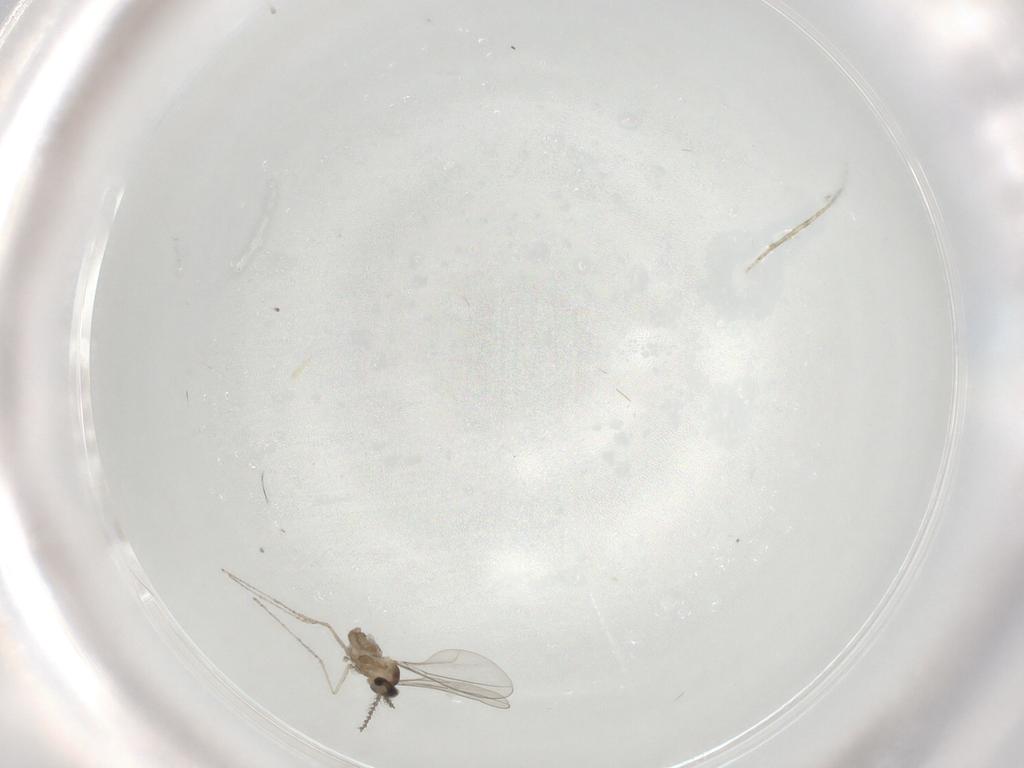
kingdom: Animalia
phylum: Arthropoda
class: Insecta
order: Diptera
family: Cecidomyiidae
